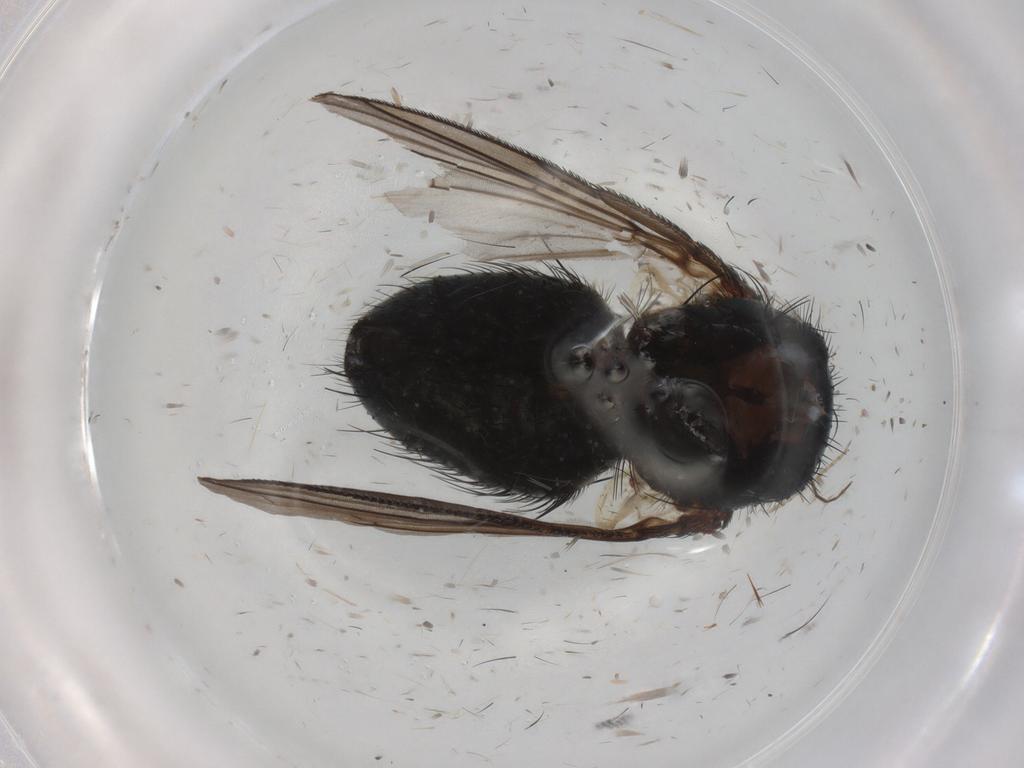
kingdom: Animalia
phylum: Arthropoda
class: Insecta
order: Diptera
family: Tachinidae
